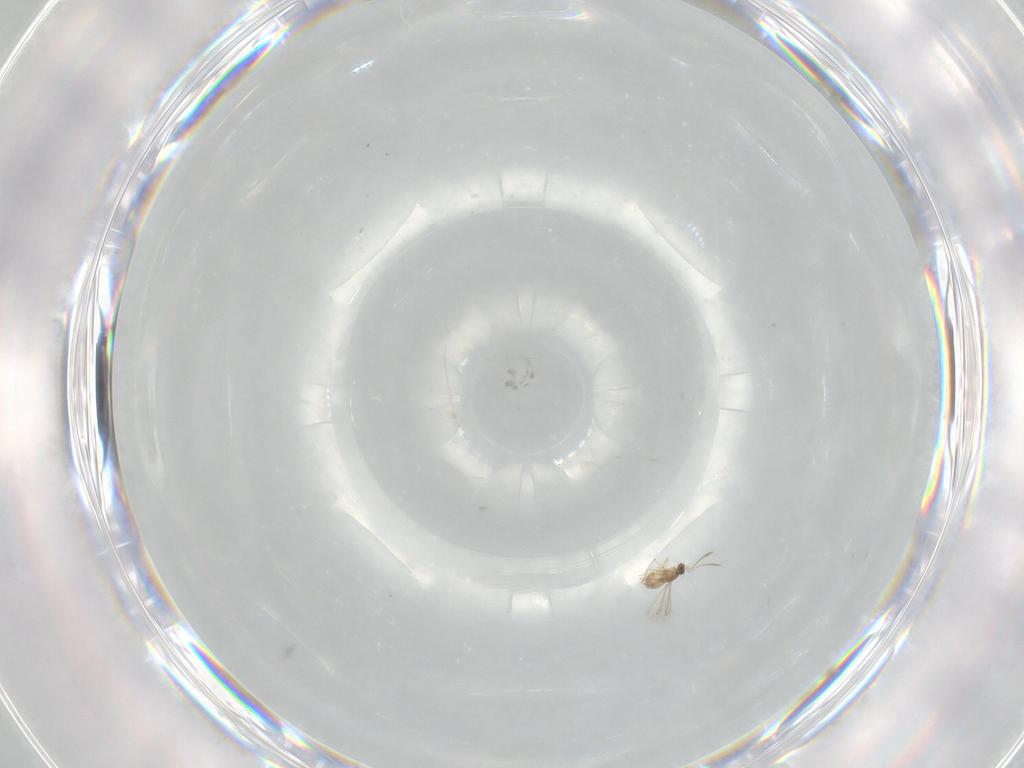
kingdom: Animalia
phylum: Arthropoda
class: Insecta
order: Hymenoptera
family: Mymaridae
